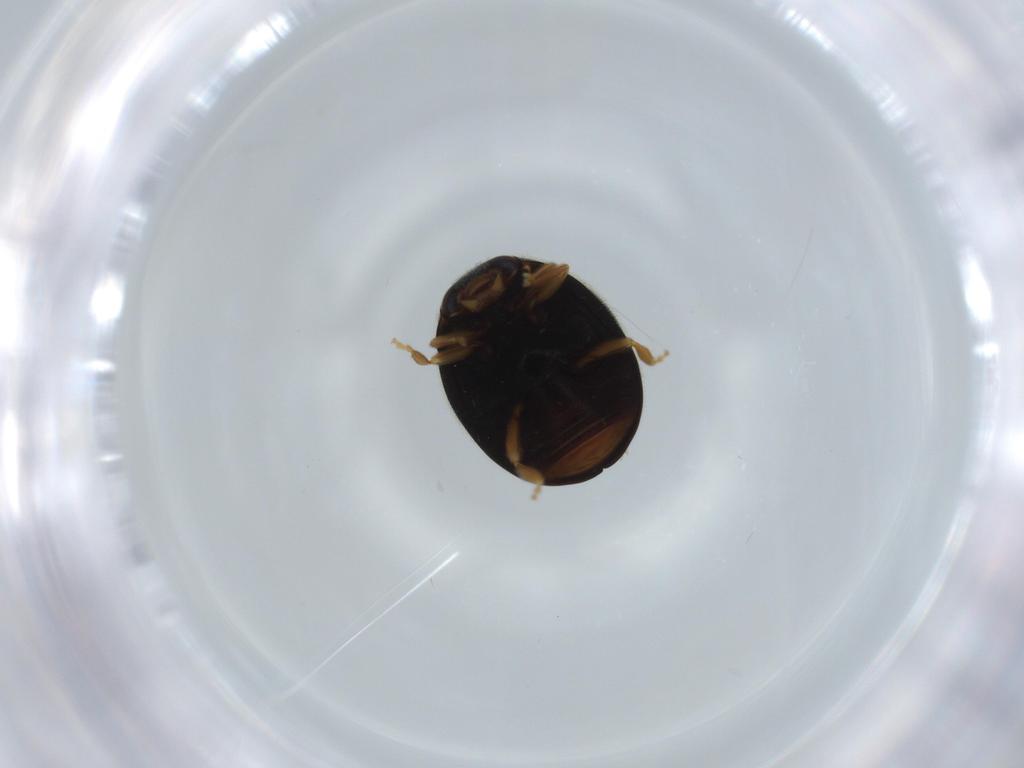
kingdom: Animalia
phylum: Arthropoda
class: Insecta
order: Coleoptera
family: Coccinellidae
